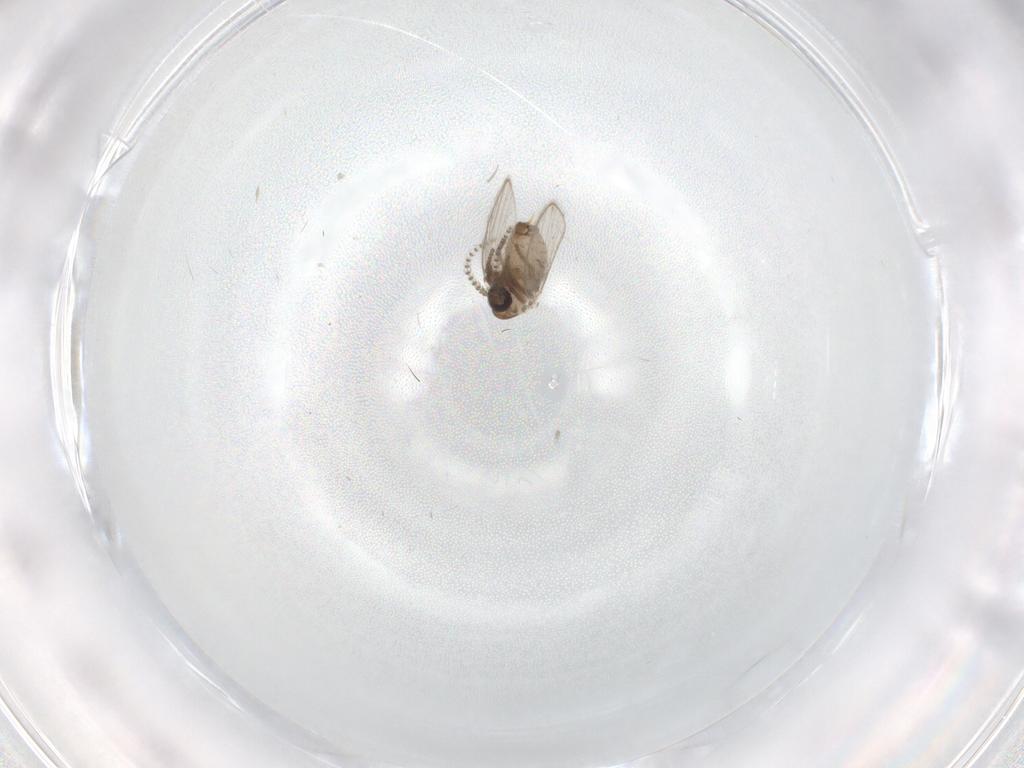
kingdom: Animalia
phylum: Arthropoda
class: Insecta
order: Diptera
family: Psychodidae
